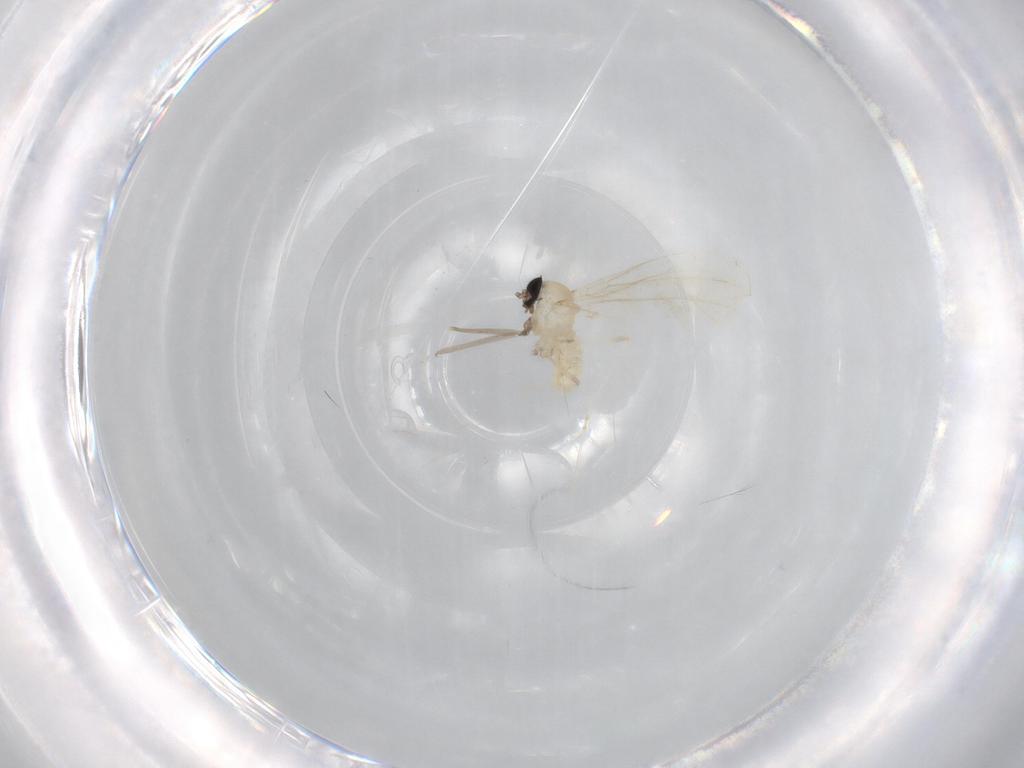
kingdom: Animalia
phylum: Arthropoda
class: Insecta
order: Diptera
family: Cecidomyiidae
